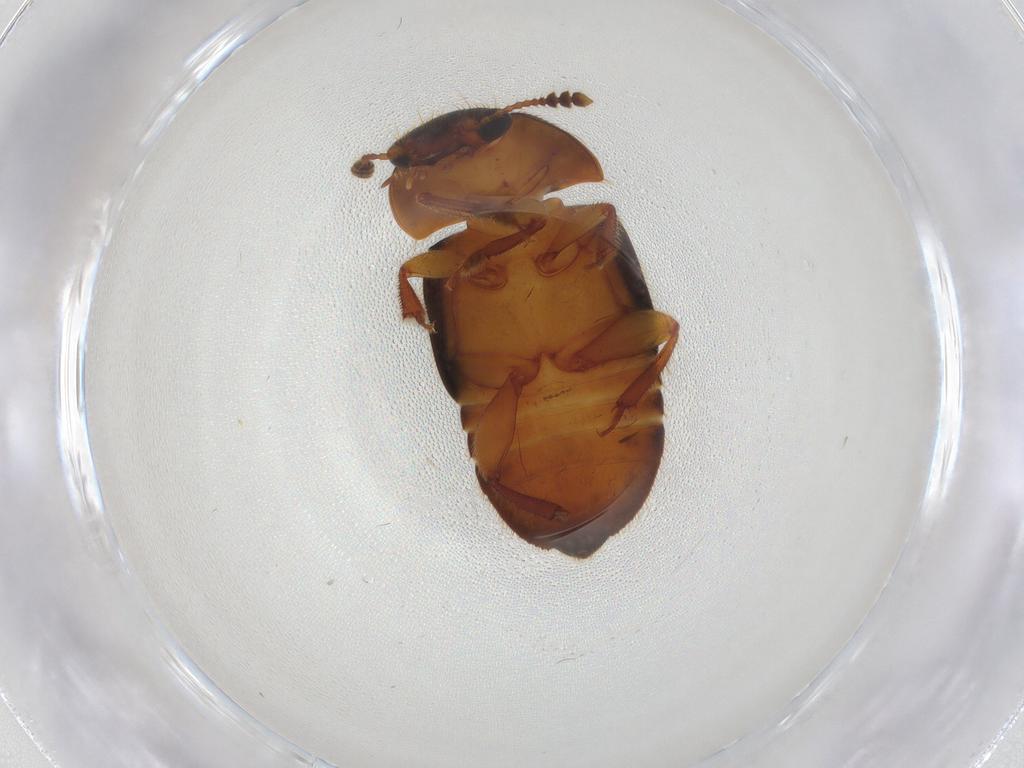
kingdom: Animalia
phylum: Arthropoda
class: Insecta
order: Coleoptera
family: Nitidulidae
